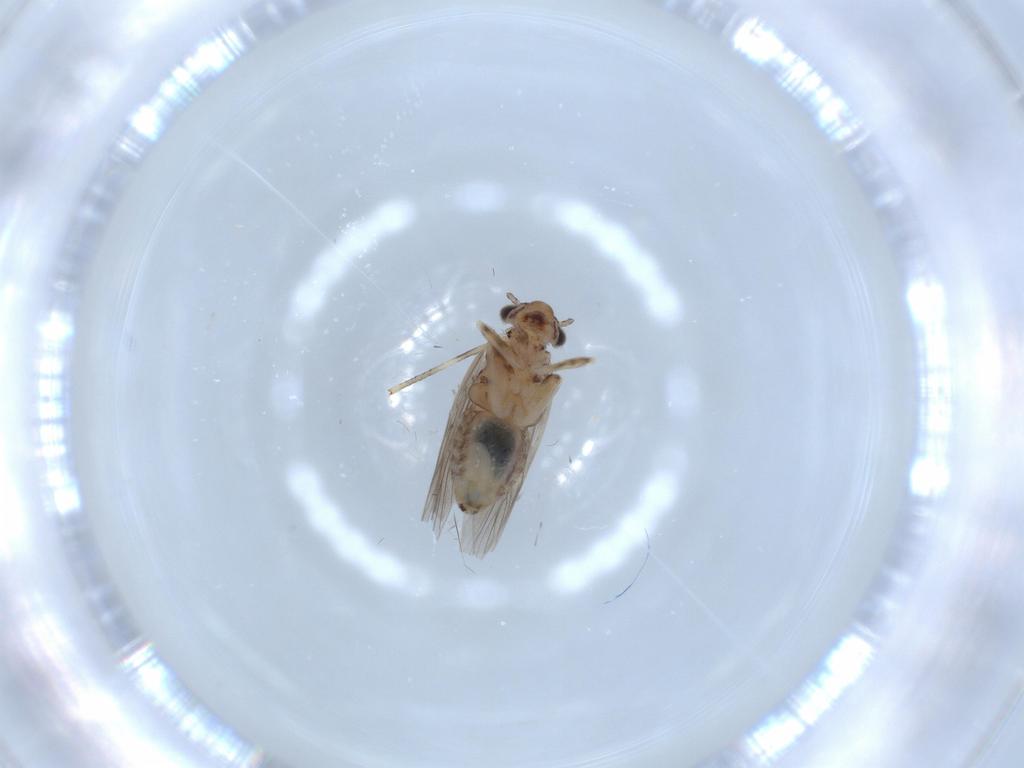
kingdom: Animalia
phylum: Arthropoda
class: Insecta
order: Psocodea
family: Lepidopsocidae
